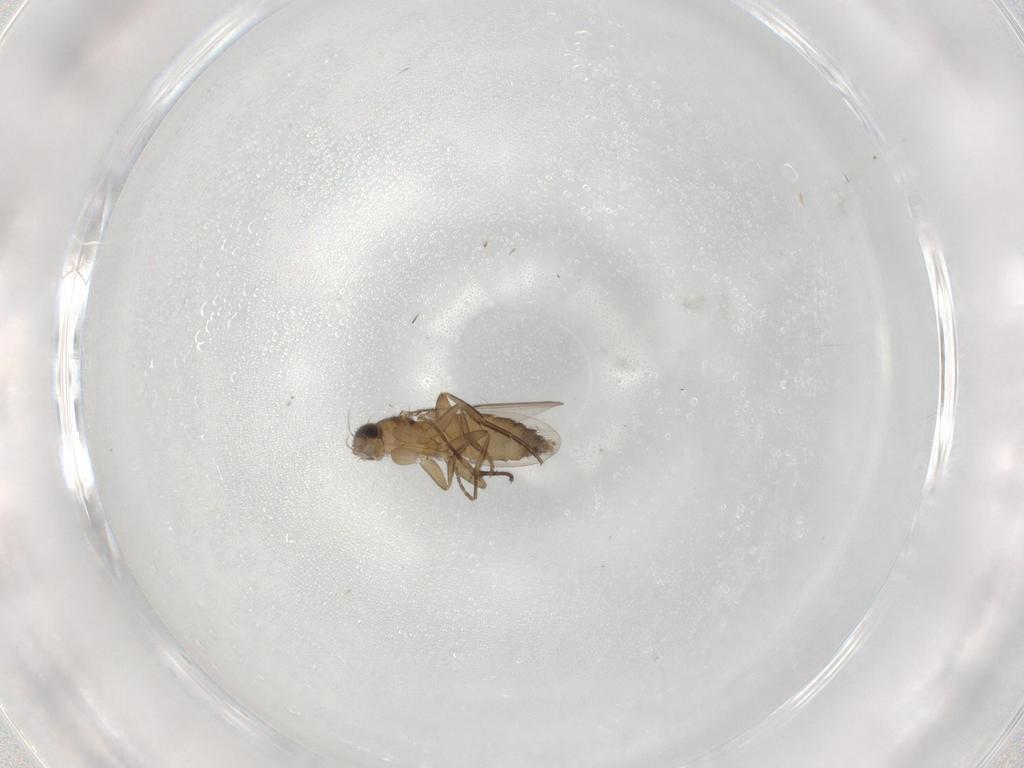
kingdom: Animalia
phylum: Arthropoda
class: Insecta
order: Diptera
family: Phoridae
